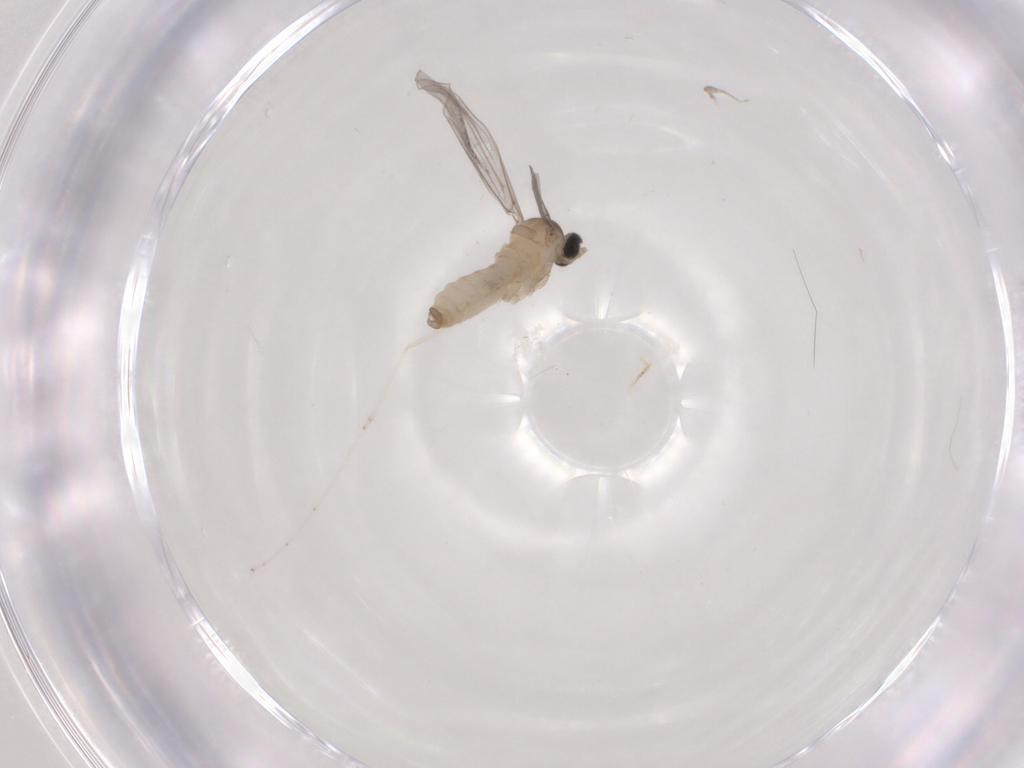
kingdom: Animalia
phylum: Arthropoda
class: Insecta
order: Diptera
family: Cecidomyiidae
